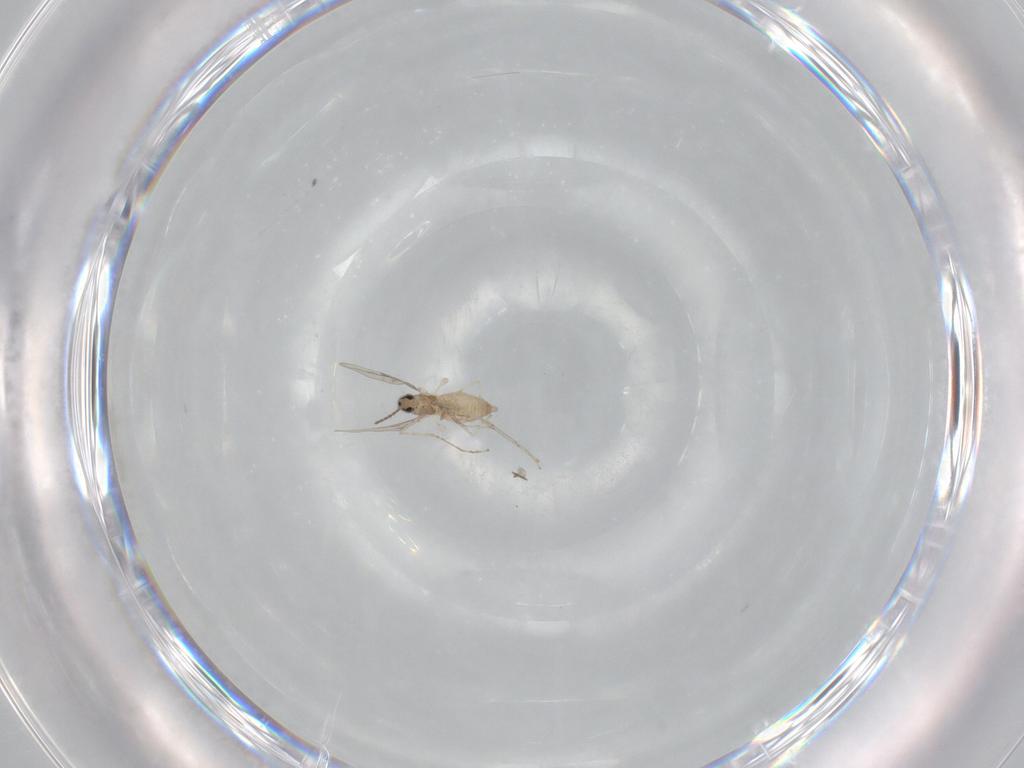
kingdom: Animalia
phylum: Arthropoda
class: Insecta
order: Diptera
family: Cecidomyiidae
